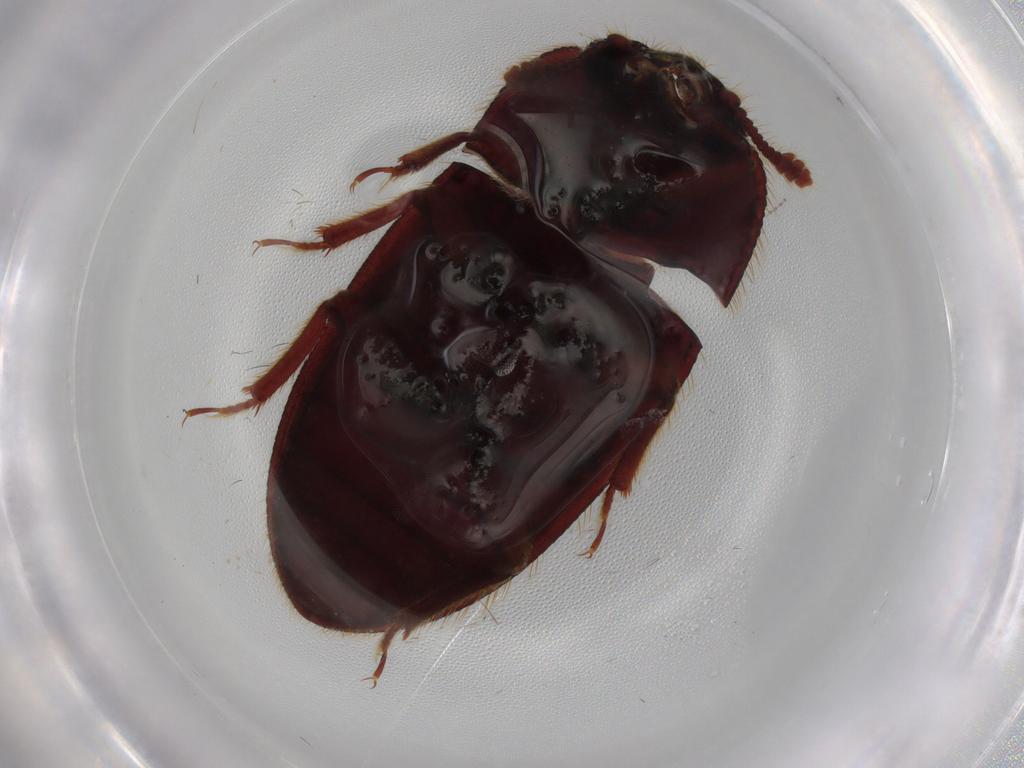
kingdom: Animalia
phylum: Arthropoda
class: Insecta
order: Coleoptera
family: Biphyllidae
